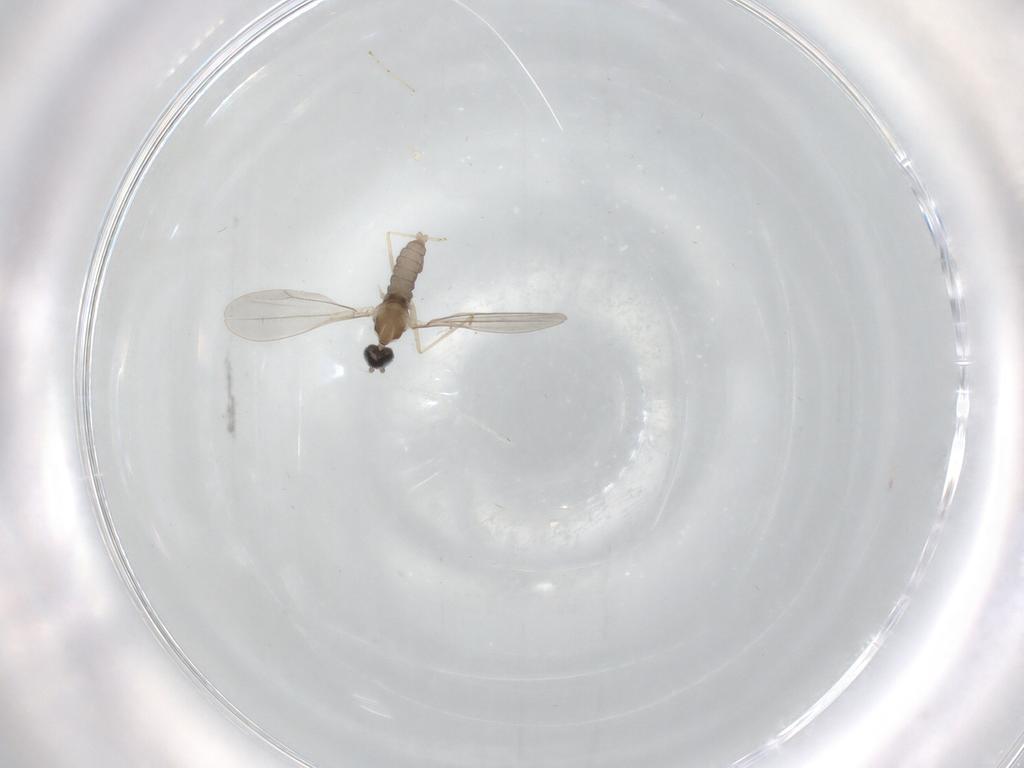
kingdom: Animalia
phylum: Arthropoda
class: Insecta
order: Diptera
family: Cecidomyiidae
